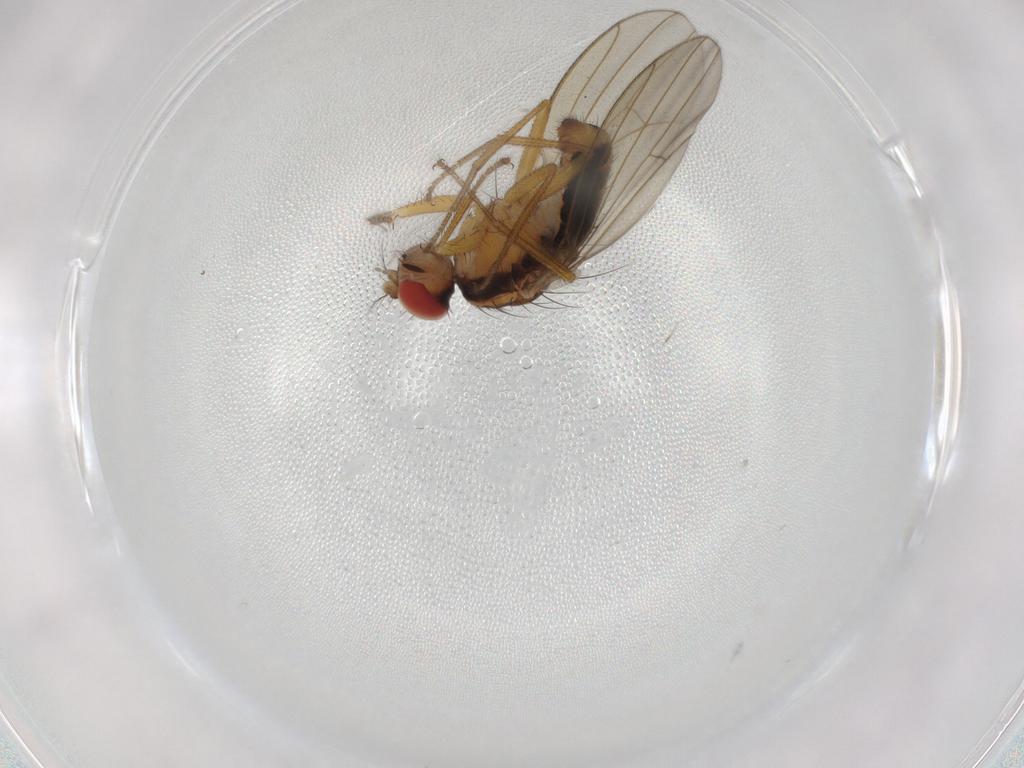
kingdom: Animalia
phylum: Arthropoda
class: Insecta
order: Diptera
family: Drosophilidae
